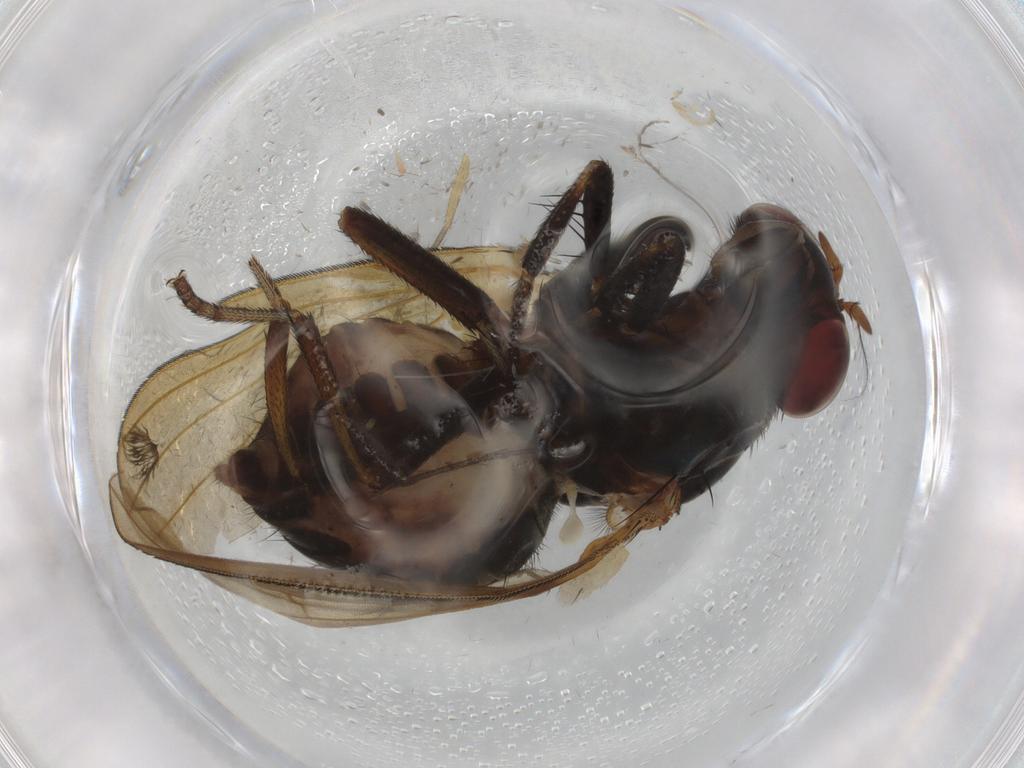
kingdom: Animalia
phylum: Arthropoda
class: Insecta
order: Diptera
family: Lauxaniidae
